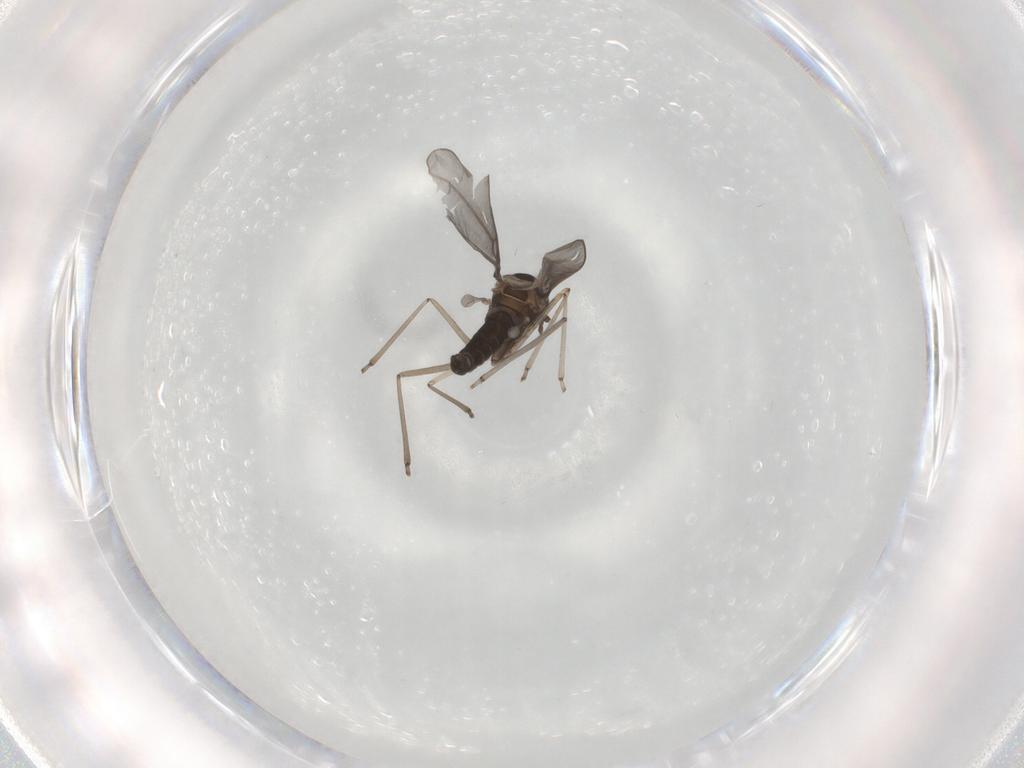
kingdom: Animalia
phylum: Arthropoda
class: Insecta
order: Diptera
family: Cecidomyiidae
